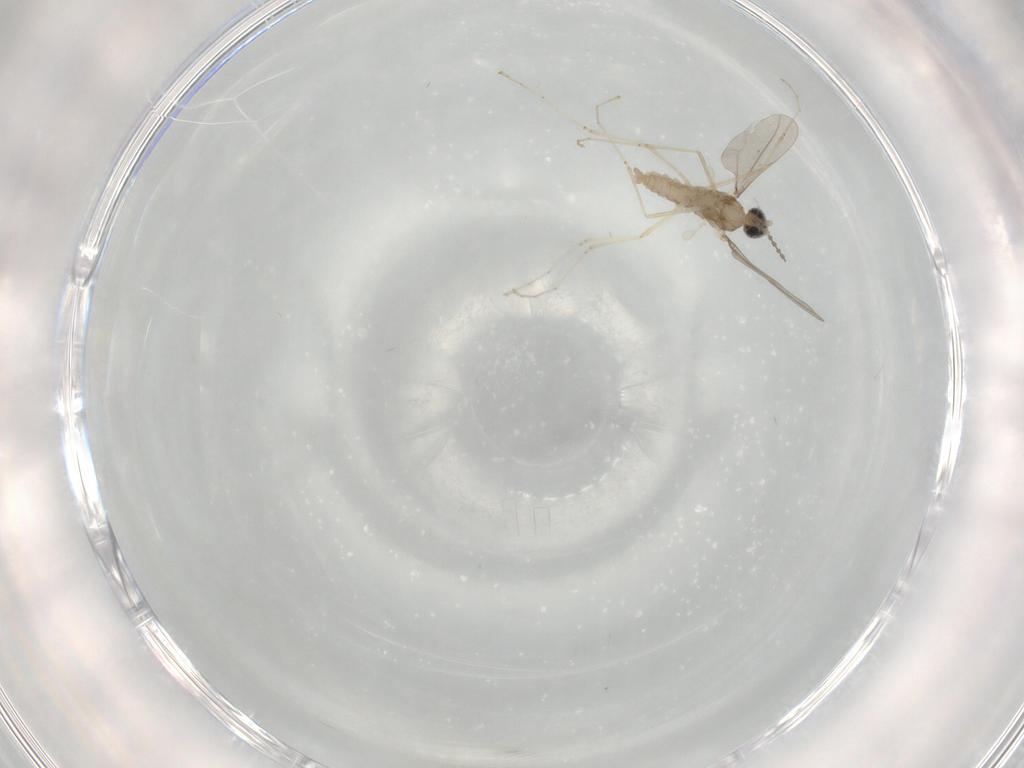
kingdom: Animalia
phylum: Arthropoda
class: Insecta
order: Diptera
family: Cecidomyiidae
